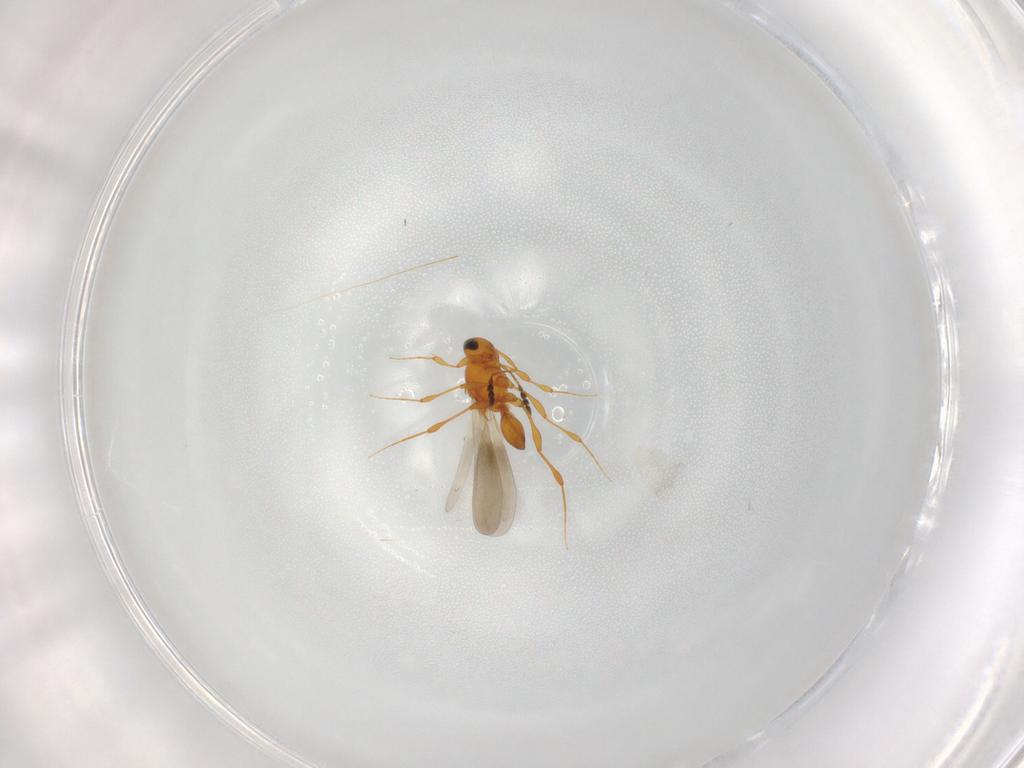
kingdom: Animalia
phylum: Arthropoda
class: Insecta
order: Hymenoptera
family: Platygastridae
